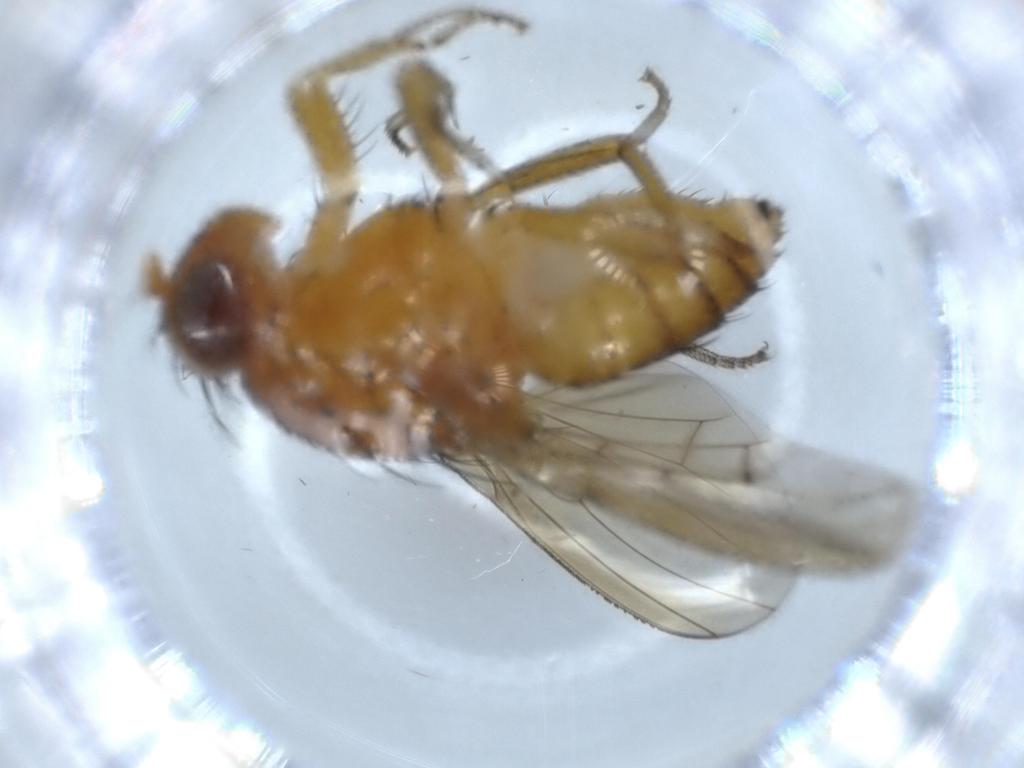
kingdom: Animalia
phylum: Arthropoda
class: Insecta
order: Diptera
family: Phoridae
